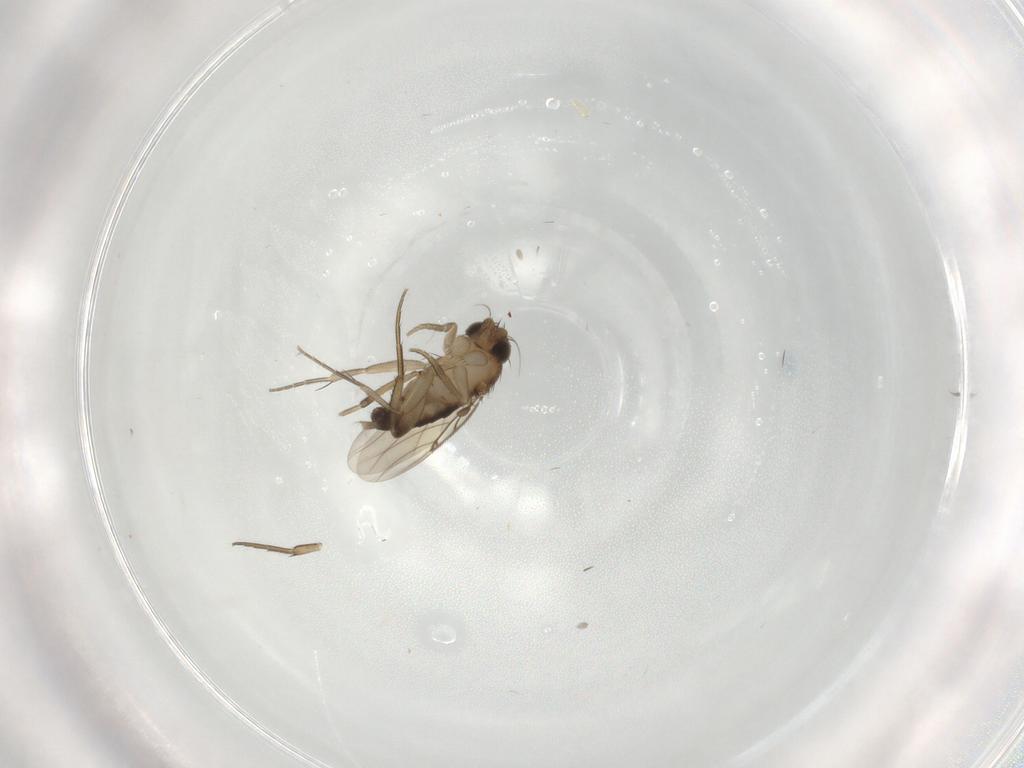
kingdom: Animalia
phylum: Arthropoda
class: Insecta
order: Diptera
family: Phoridae
